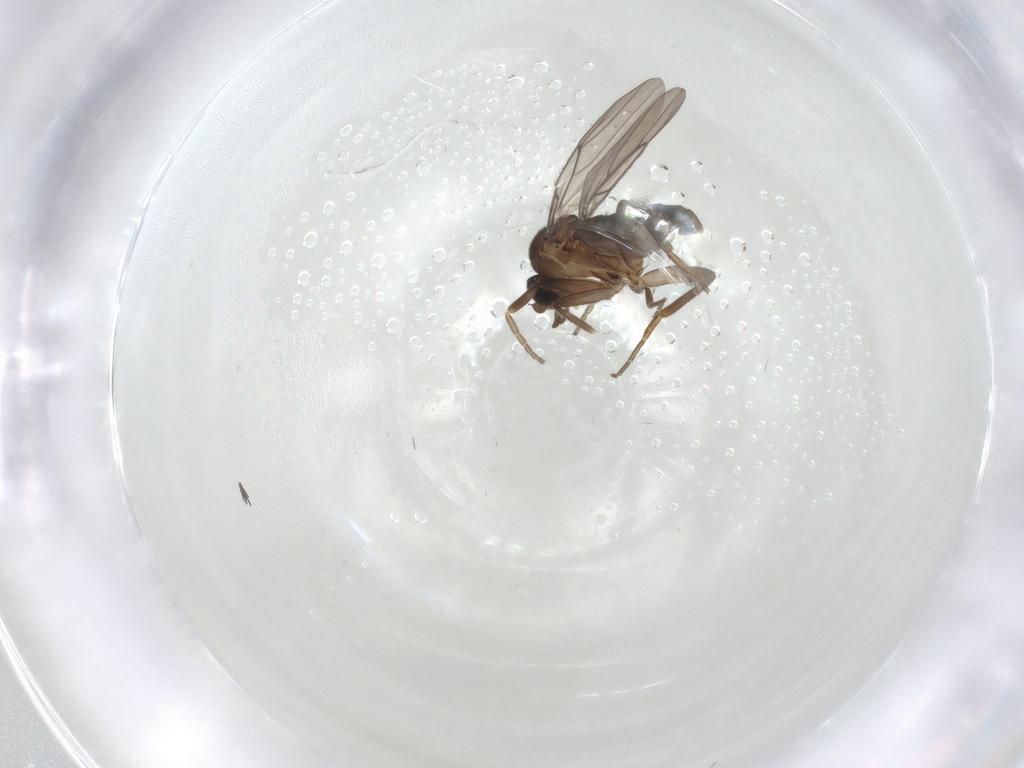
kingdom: Animalia
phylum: Arthropoda
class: Insecta
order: Diptera
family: Phoridae
